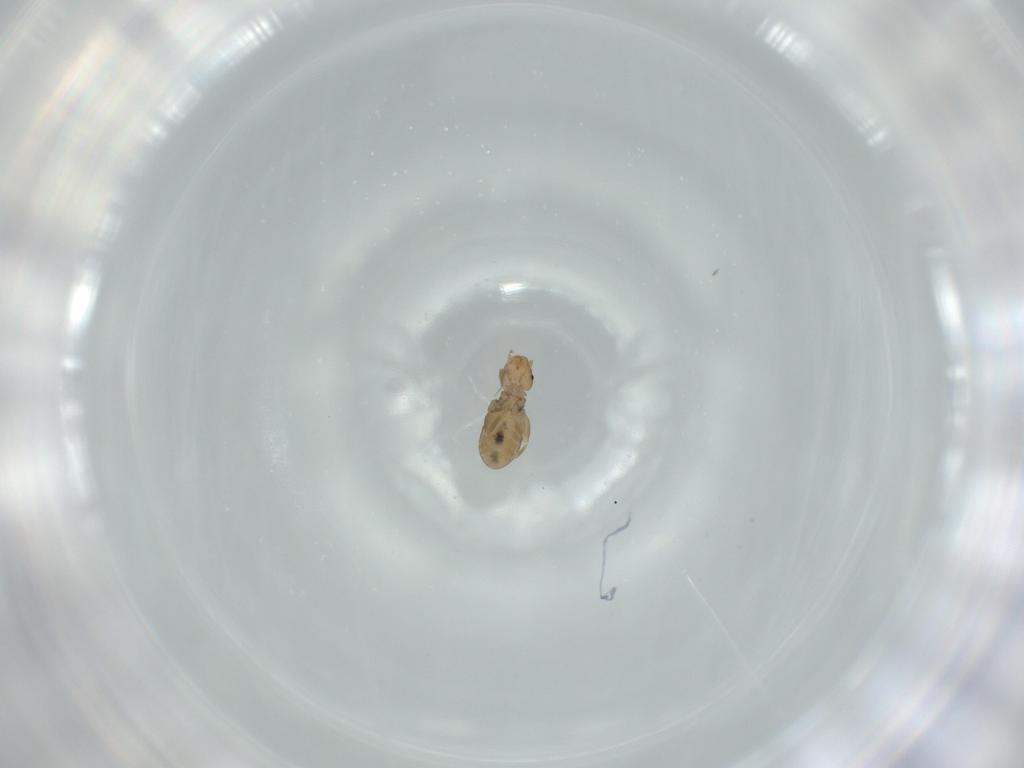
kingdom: Animalia
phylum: Arthropoda
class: Insecta
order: Psocodea
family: Liposcelididae
